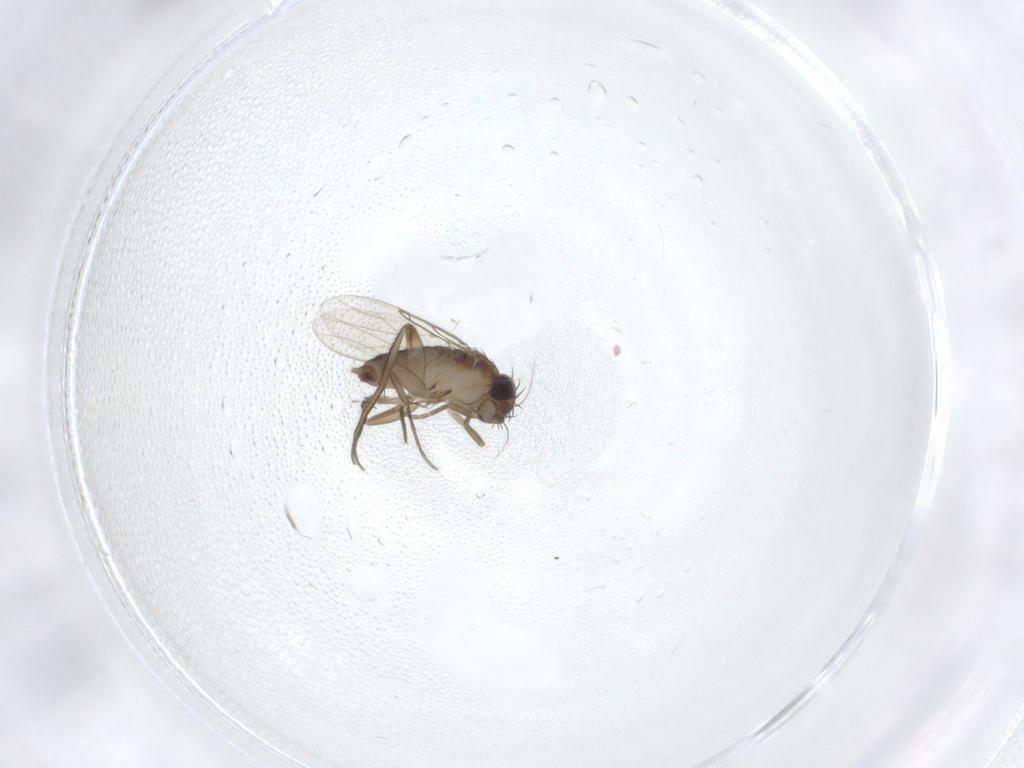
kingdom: Animalia
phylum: Arthropoda
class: Insecta
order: Diptera
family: Phoridae
